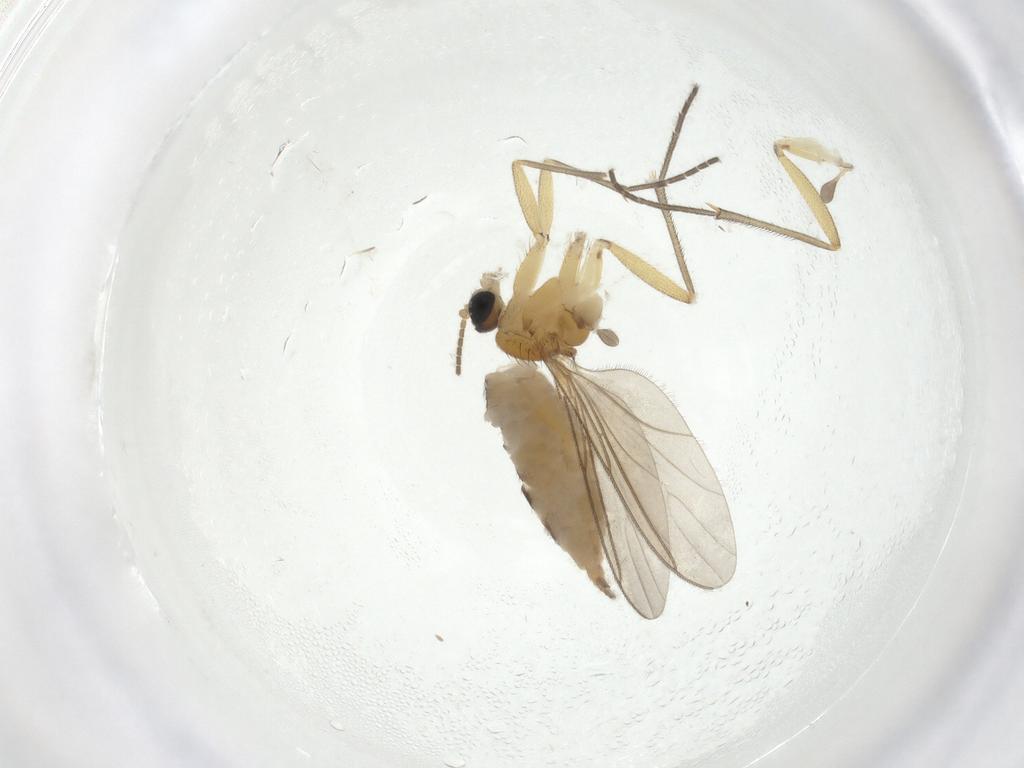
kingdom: Animalia
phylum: Arthropoda
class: Insecta
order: Diptera
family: Sciaridae
